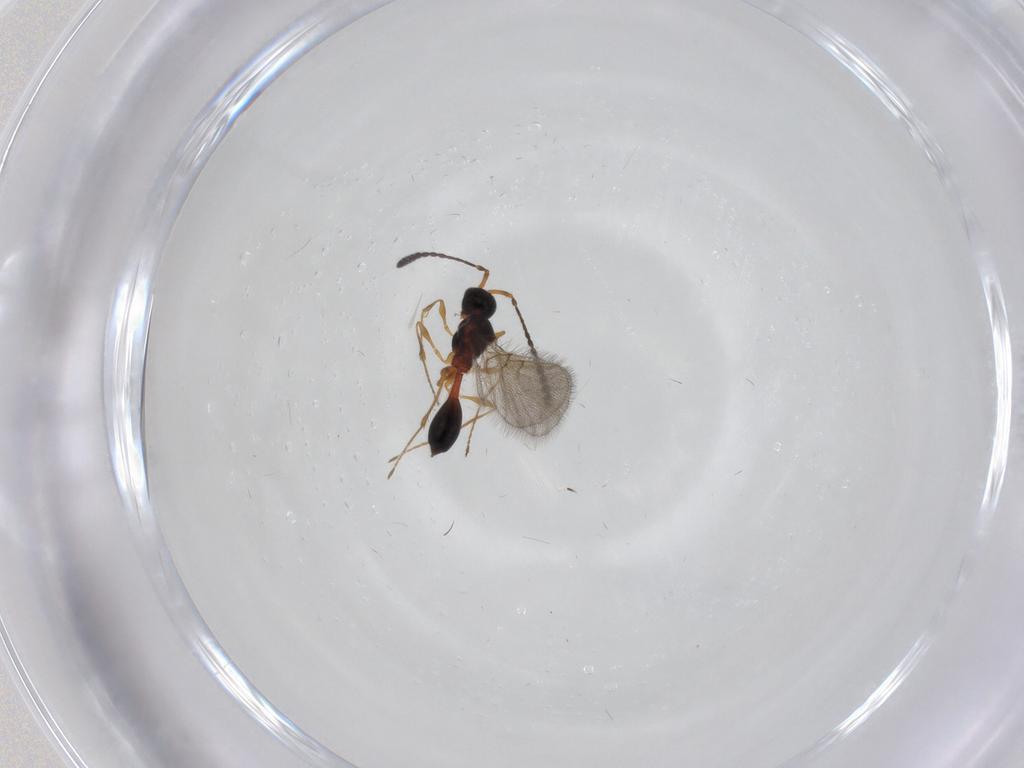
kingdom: Animalia
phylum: Arthropoda
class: Insecta
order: Hymenoptera
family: Diapriidae
